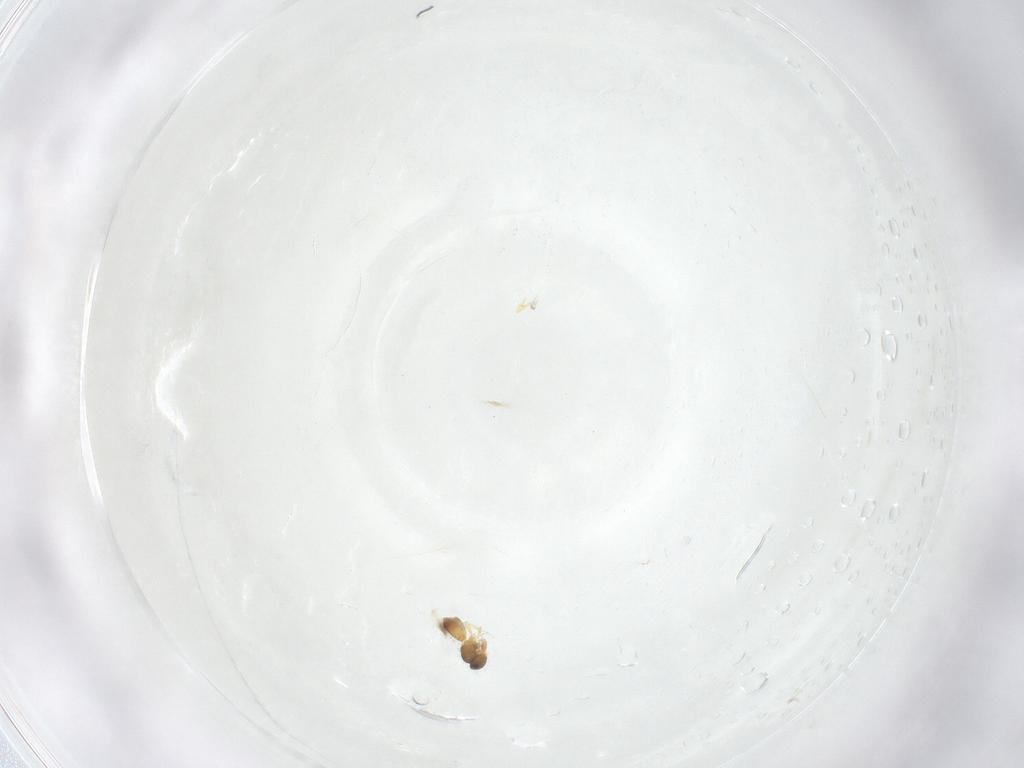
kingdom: Animalia
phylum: Arthropoda
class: Insecta
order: Hymenoptera
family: Platygastridae
